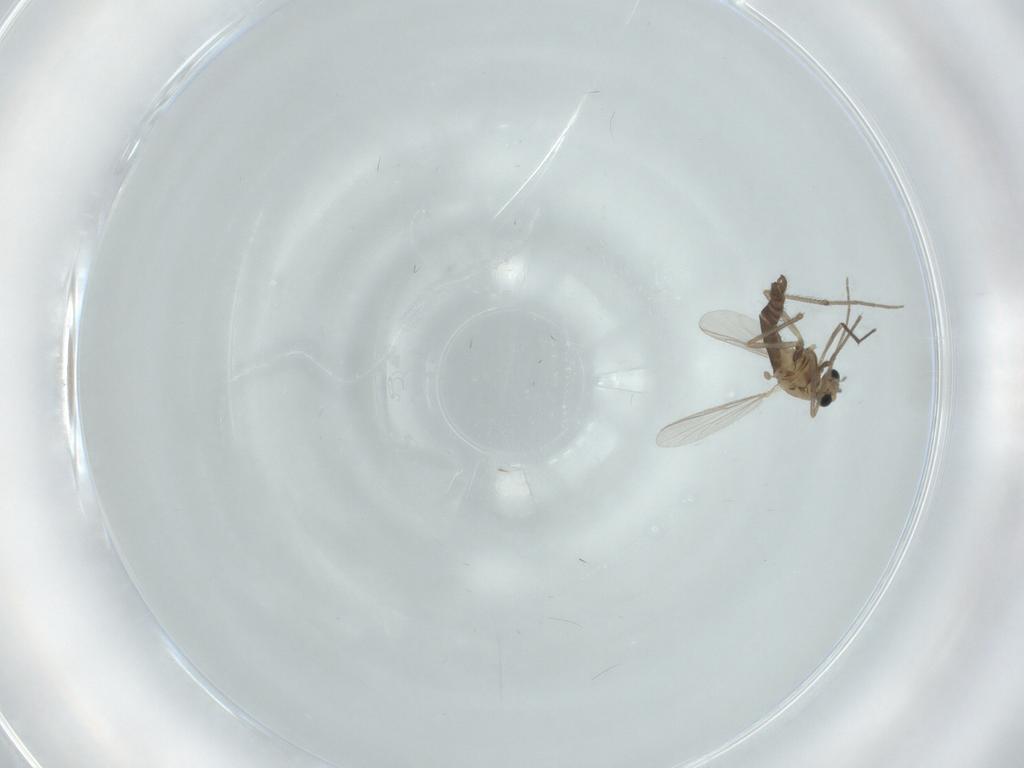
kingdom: Animalia
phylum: Arthropoda
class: Insecta
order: Diptera
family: Chironomidae
